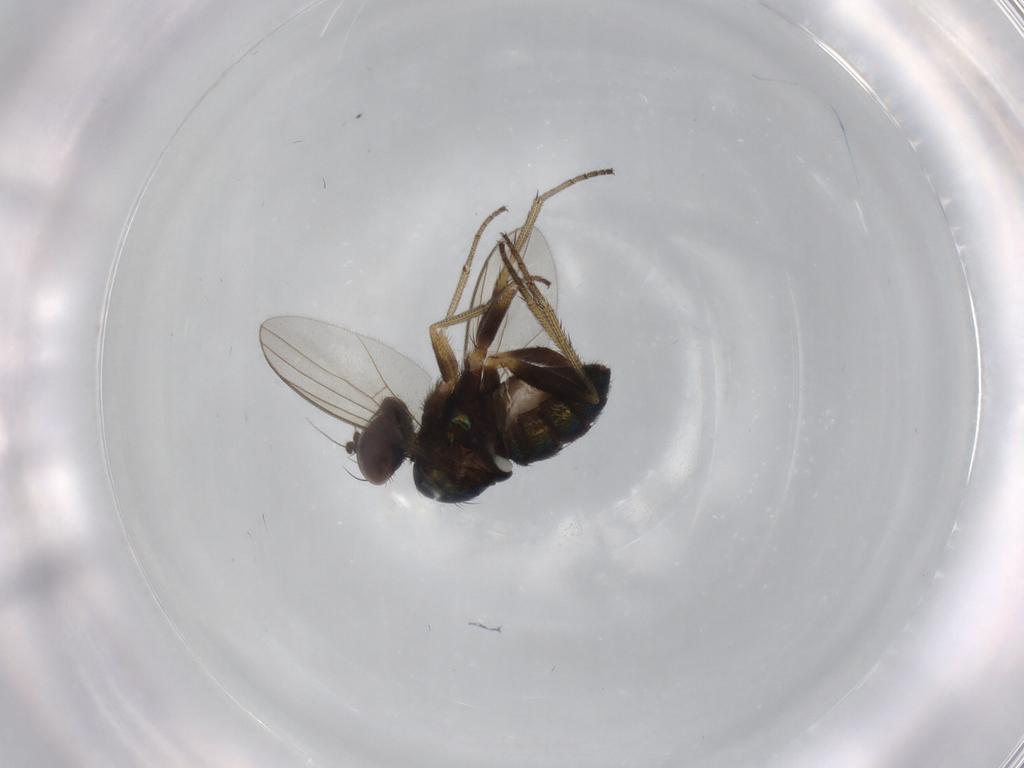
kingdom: Animalia
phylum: Arthropoda
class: Insecta
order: Diptera
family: Dolichopodidae
